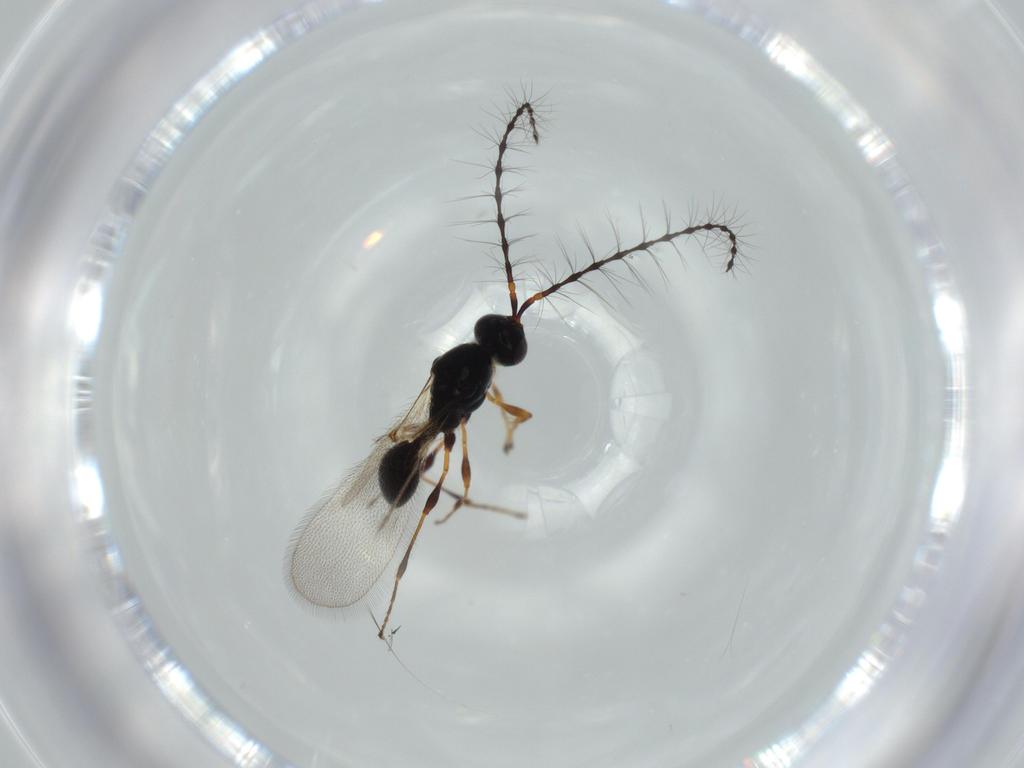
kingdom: Animalia
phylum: Arthropoda
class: Insecta
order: Hymenoptera
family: Diapriidae
